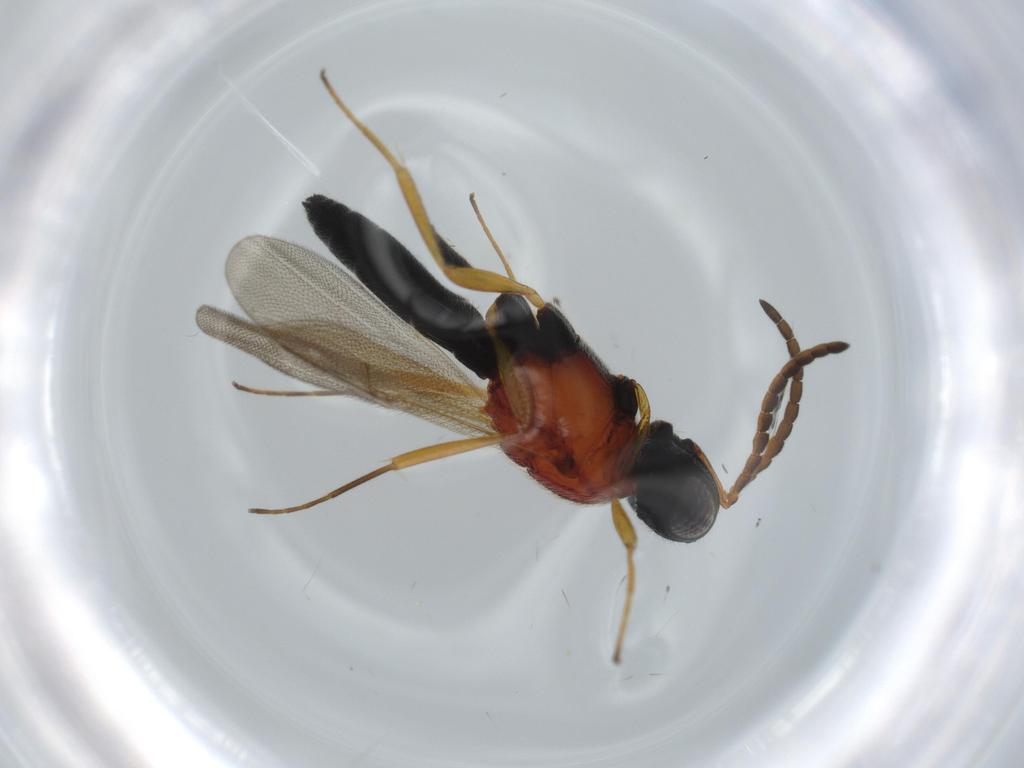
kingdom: Animalia
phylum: Arthropoda
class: Insecta
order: Hymenoptera
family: Scelionidae
